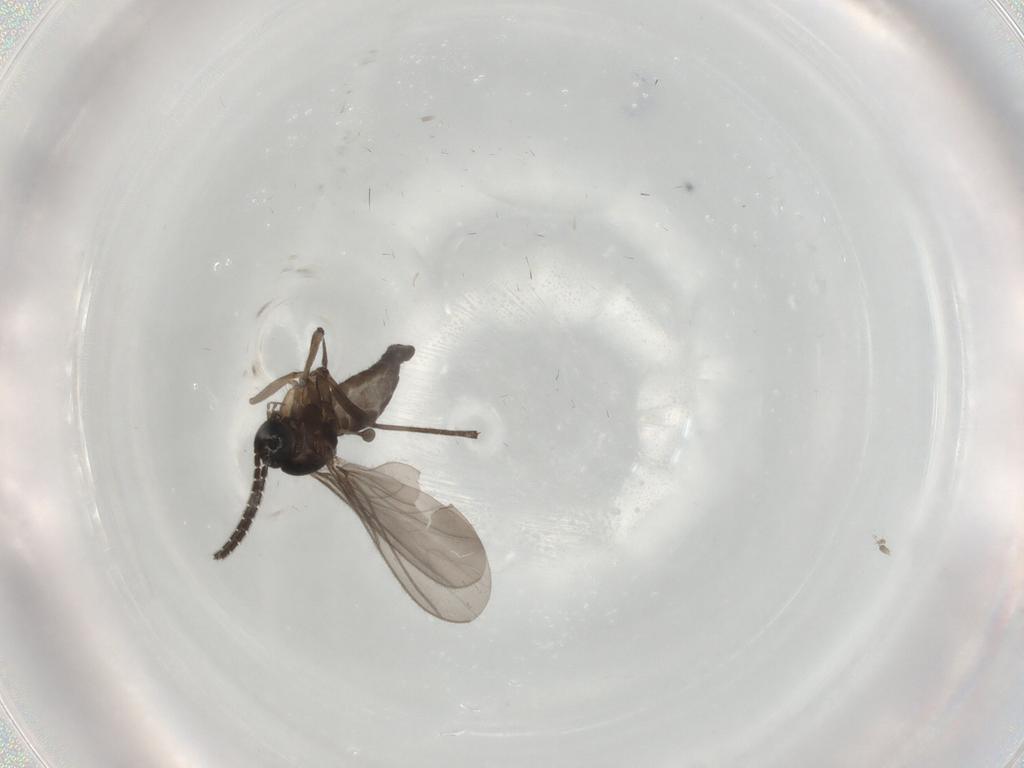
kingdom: Animalia
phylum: Arthropoda
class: Insecta
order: Diptera
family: Sciaridae
